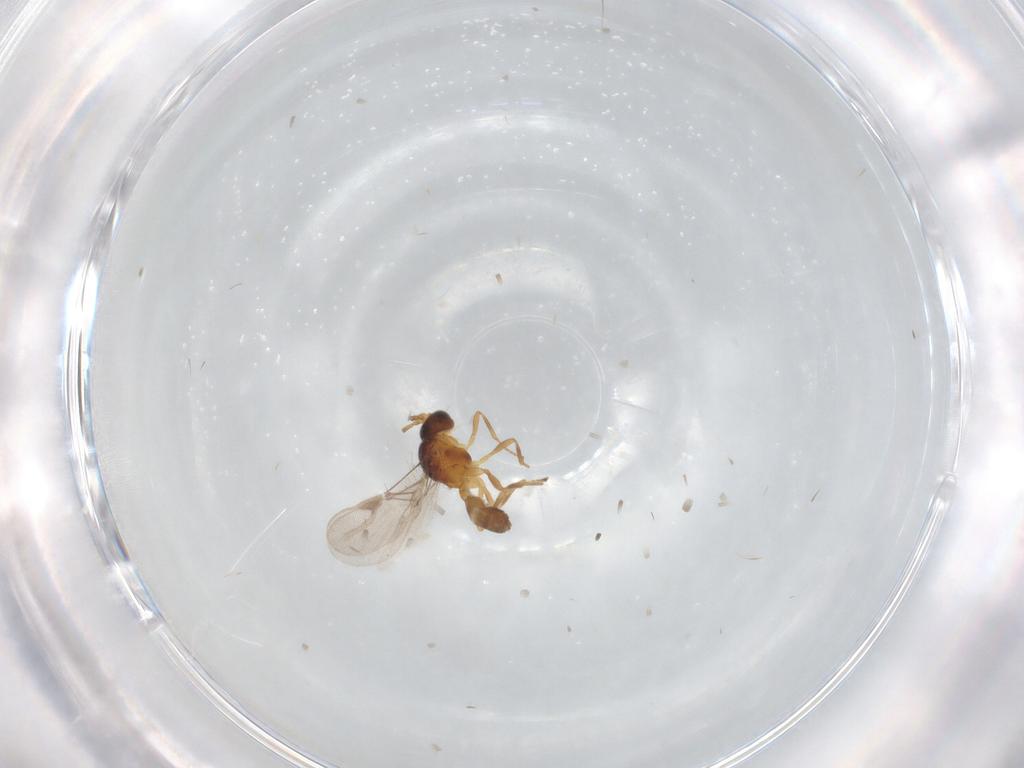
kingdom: Animalia
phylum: Arthropoda
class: Insecta
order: Hymenoptera
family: Braconidae
